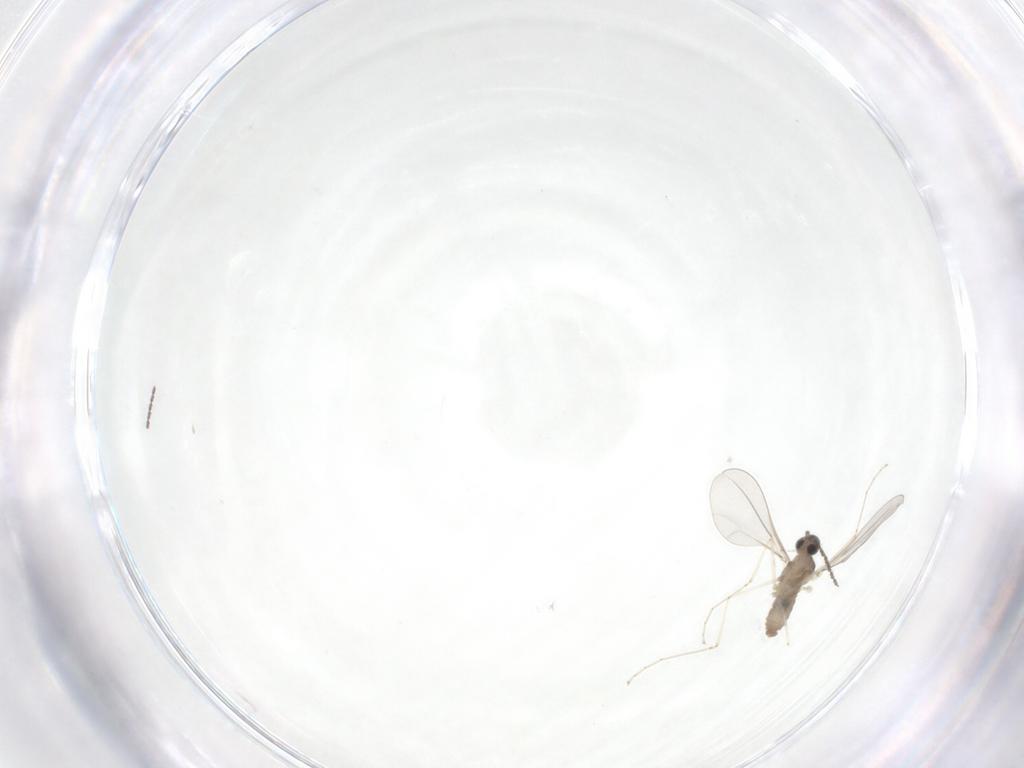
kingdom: Animalia
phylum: Arthropoda
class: Insecta
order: Diptera
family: Cecidomyiidae
